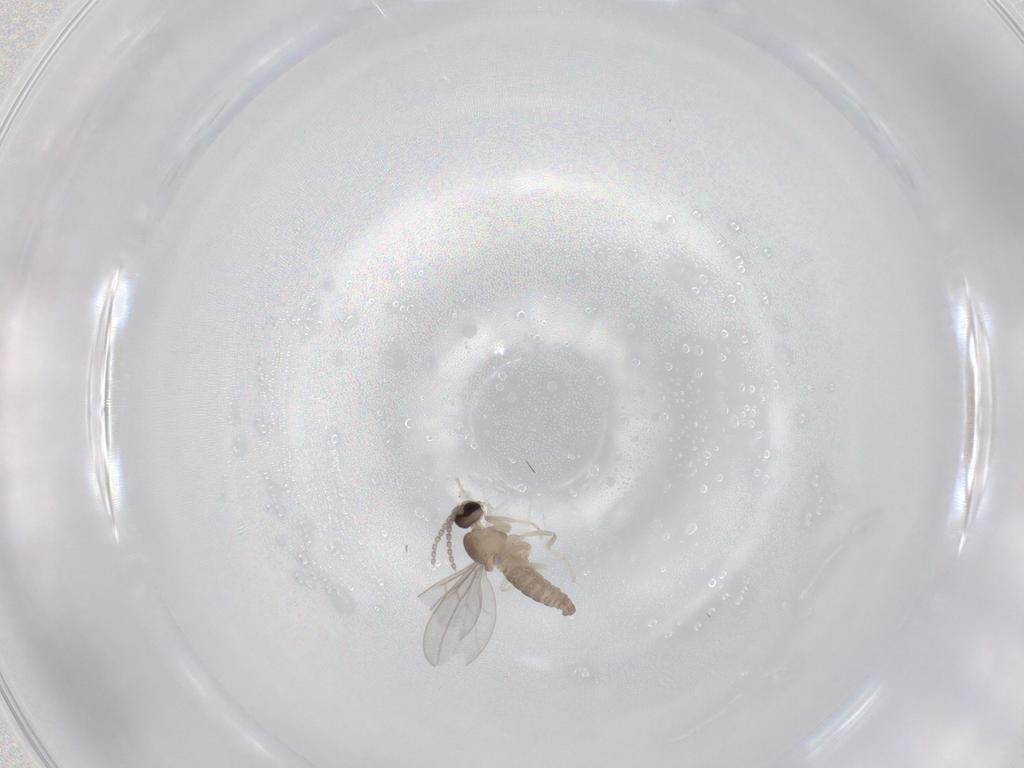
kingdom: Animalia
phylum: Arthropoda
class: Insecta
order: Diptera
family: Cecidomyiidae
